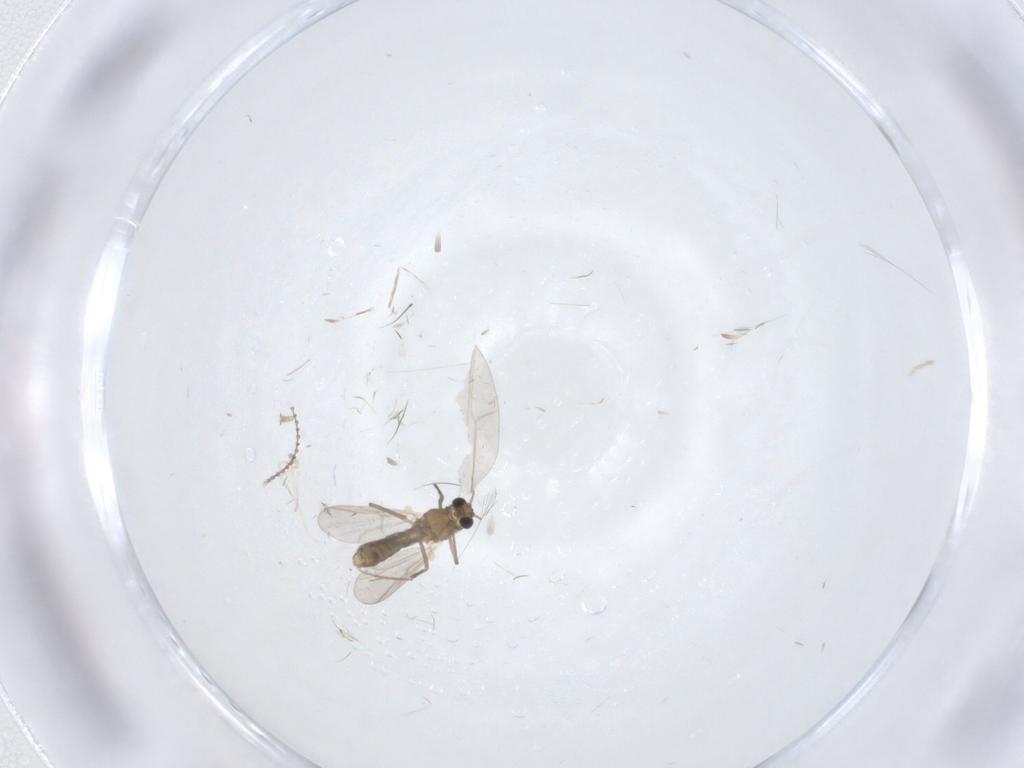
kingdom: Animalia
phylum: Arthropoda
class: Insecta
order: Diptera
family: Cecidomyiidae
